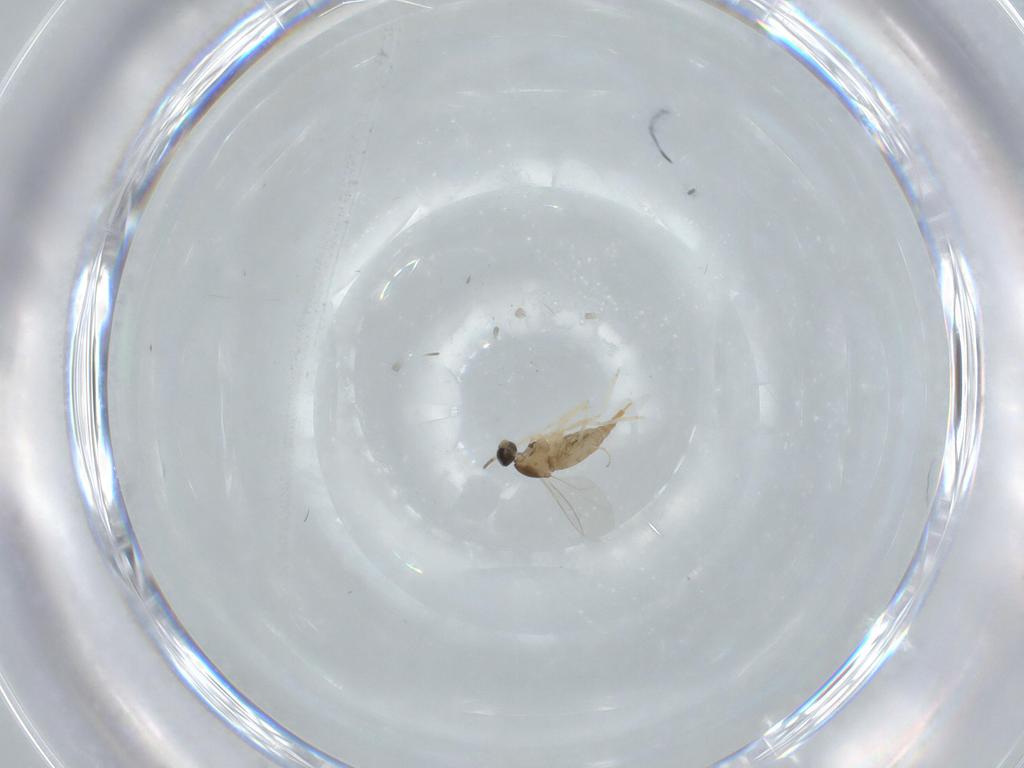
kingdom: Animalia
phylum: Arthropoda
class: Insecta
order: Diptera
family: Cecidomyiidae
